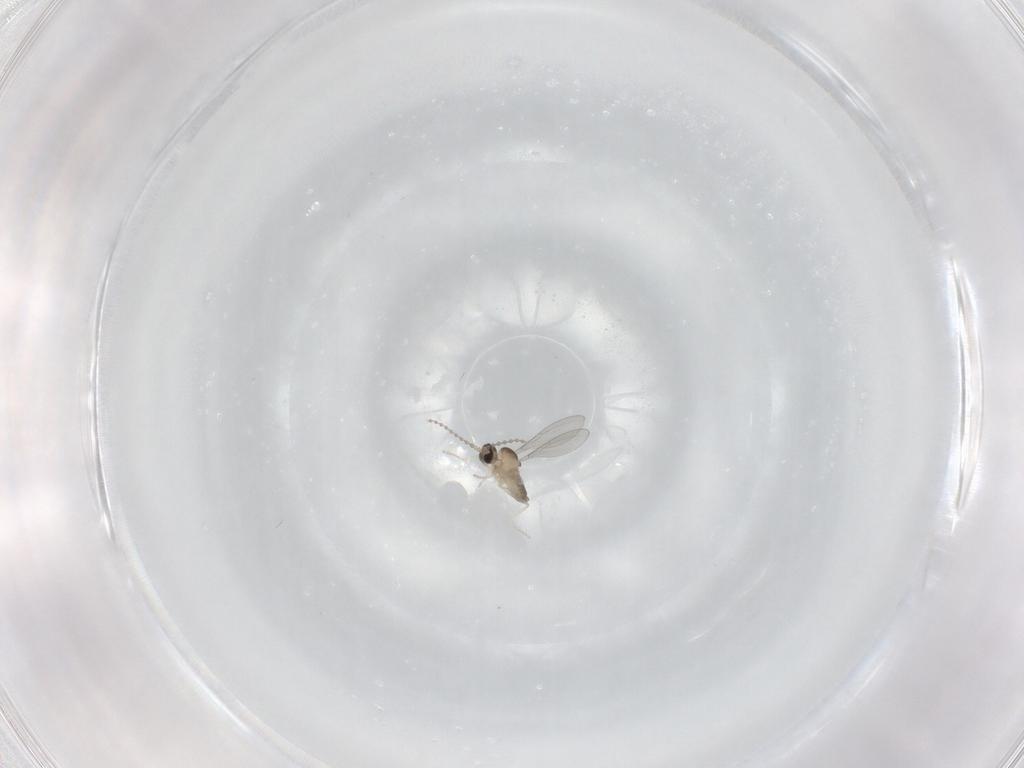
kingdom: Animalia
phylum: Arthropoda
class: Insecta
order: Diptera
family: Cecidomyiidae
